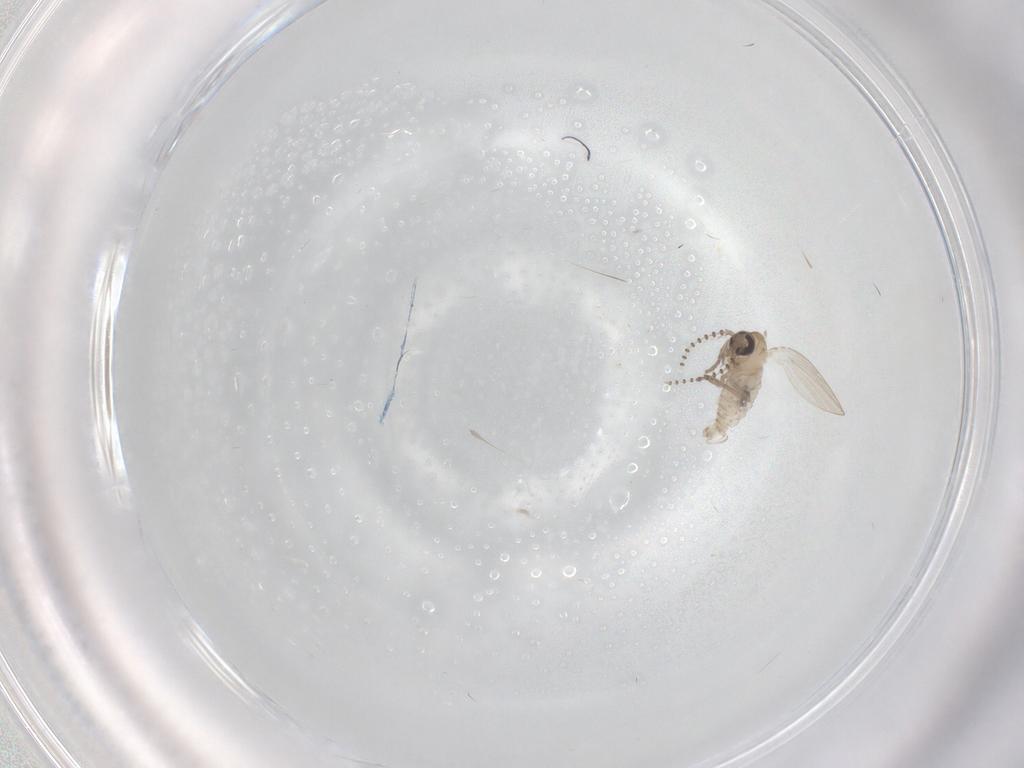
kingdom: Animalia
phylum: Arthropoda
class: Insecta
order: Diptera
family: Psychodidae
